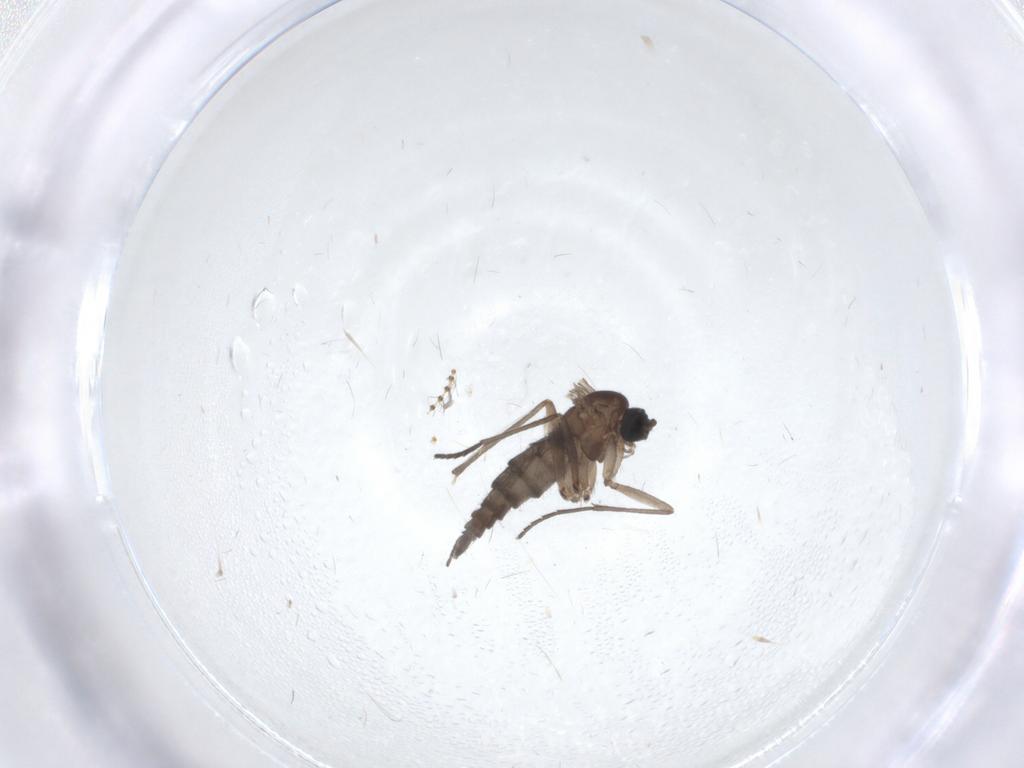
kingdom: Animalia
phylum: Arthropoda
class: Insecta
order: Diptera
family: Sciaridae
